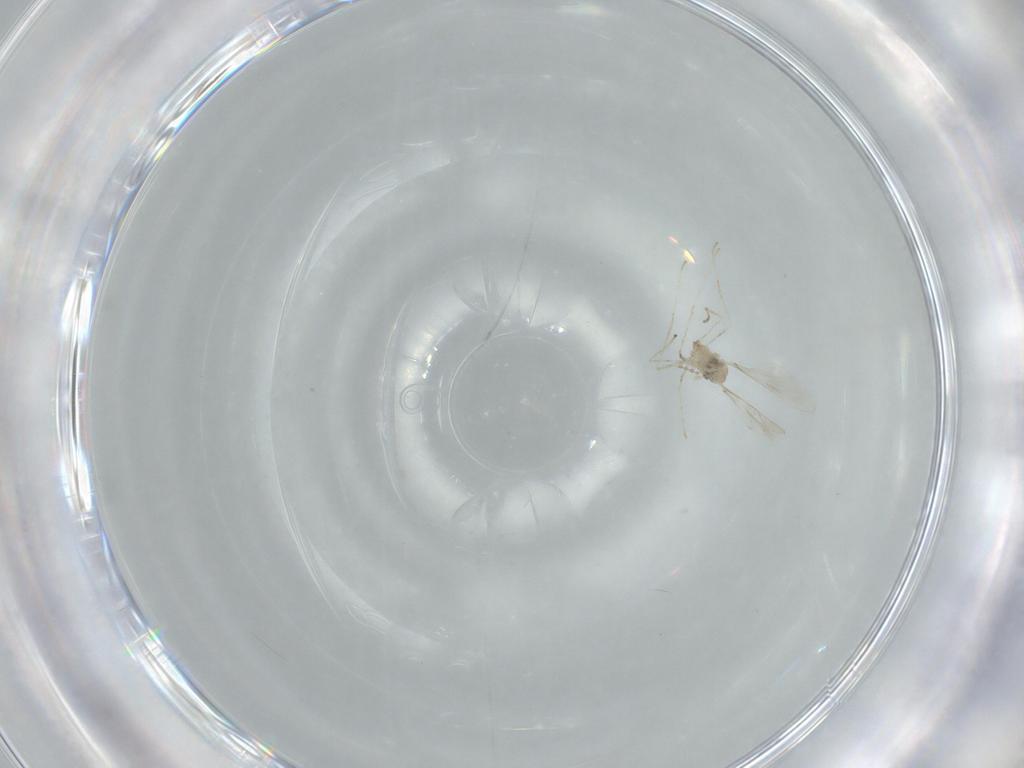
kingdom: Animalia
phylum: Arthropoda
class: Insecta
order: Diptera
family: Cecidomyiidae
